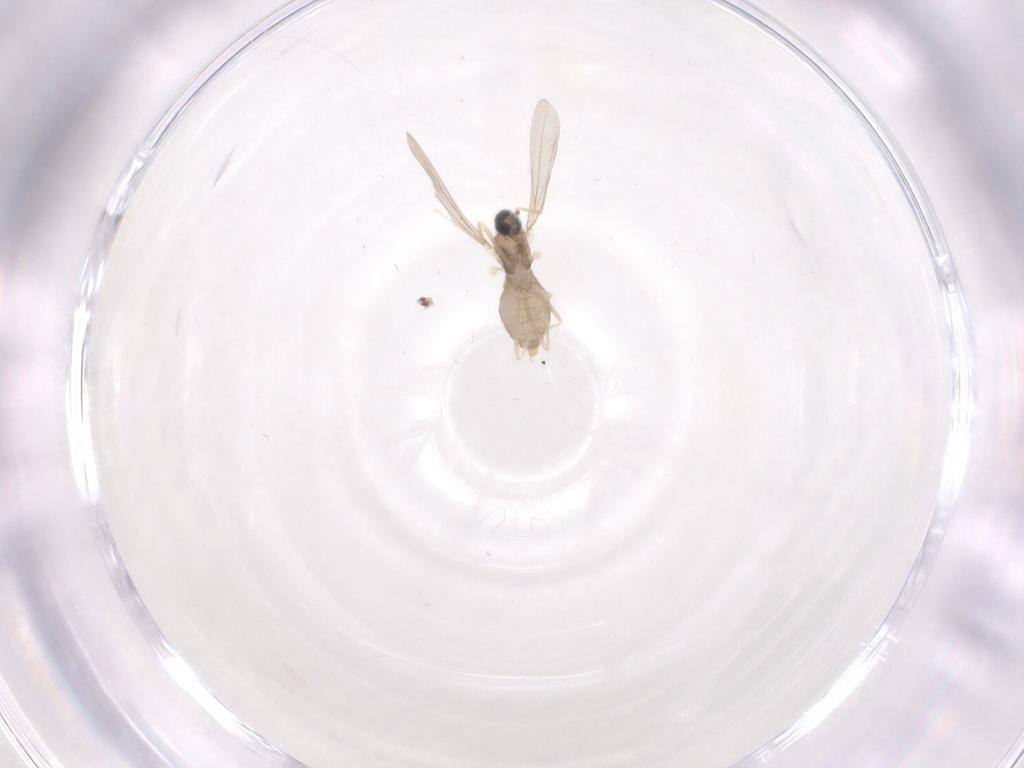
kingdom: Animalia
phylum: Arthropoda
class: Insecta
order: Diptera
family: Cecidomyiidae
